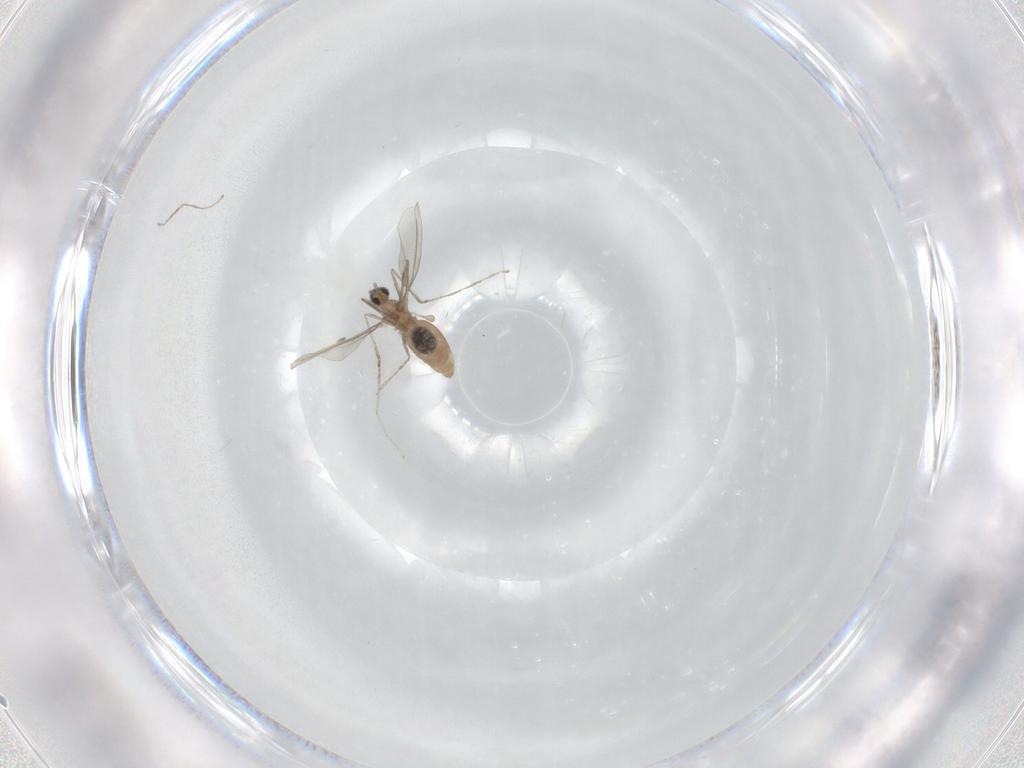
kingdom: Animalia
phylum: Arthropoda
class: Insecta
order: Diptera
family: Cecidomyiidae
